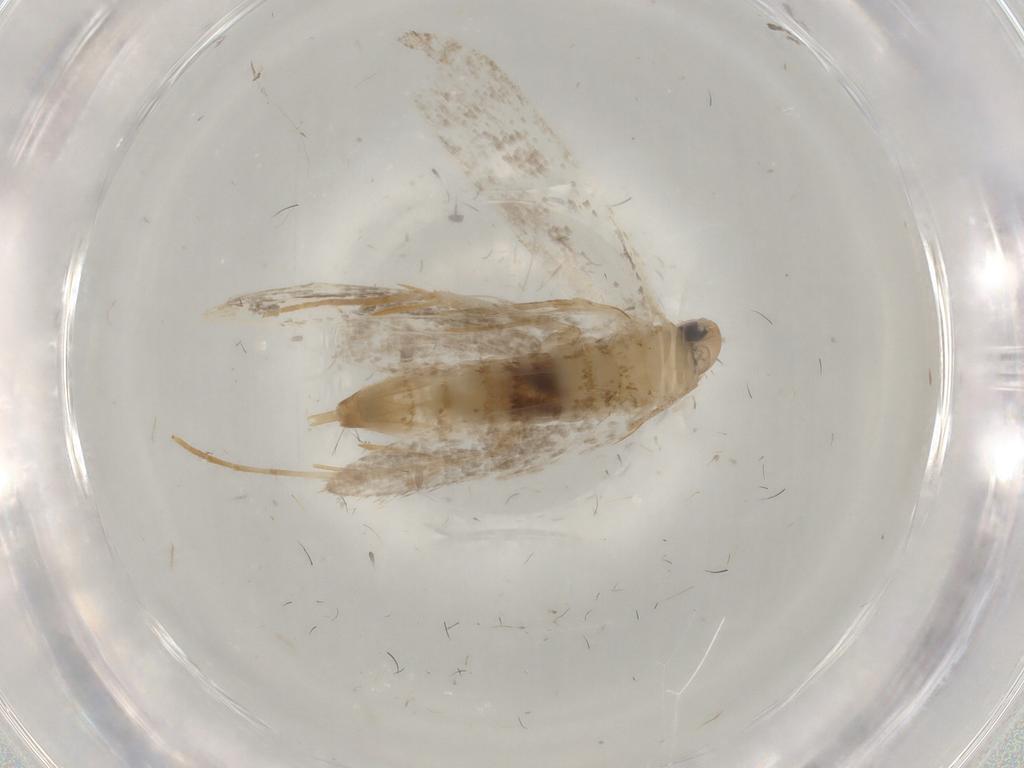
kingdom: Animalia
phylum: Arthropoda
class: Insecta
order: Lepidoptera
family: Tineidae
